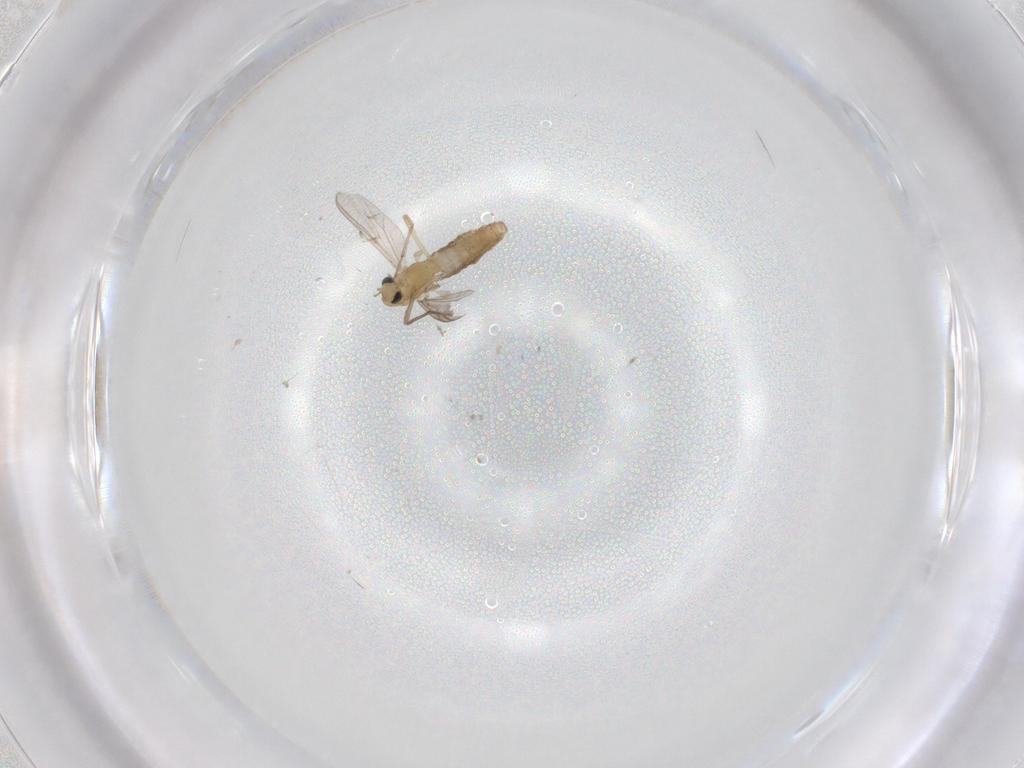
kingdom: Animalia
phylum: Arthropoda
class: Insecta
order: Diptera
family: Chironomidae
